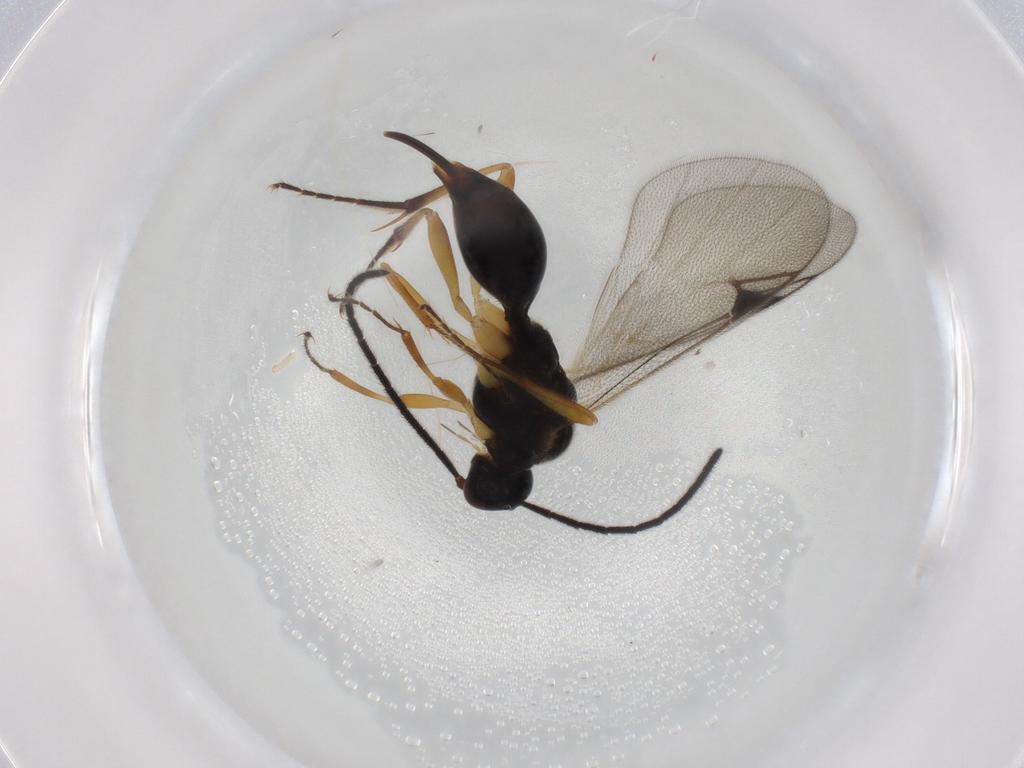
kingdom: Animalia
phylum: Arthropoda
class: Insecta
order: Hymenoptera
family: Proctotrupidae
